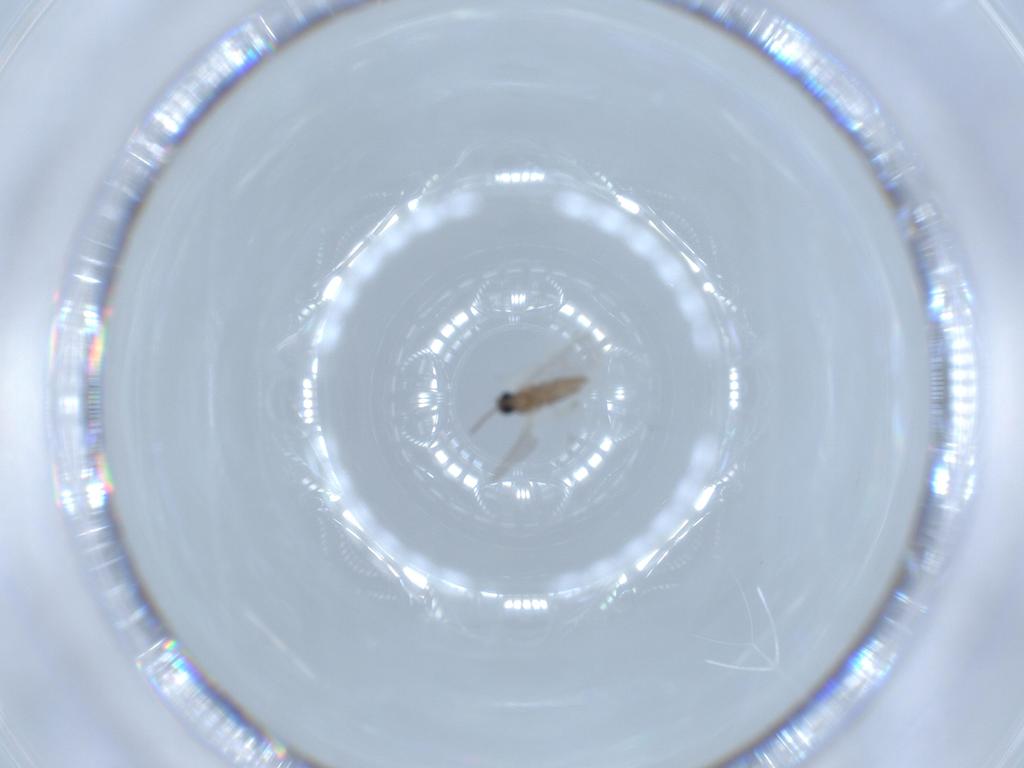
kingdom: Animalia
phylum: Arthropoda
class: Insecta
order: Diptera
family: Cecidomyiidae
